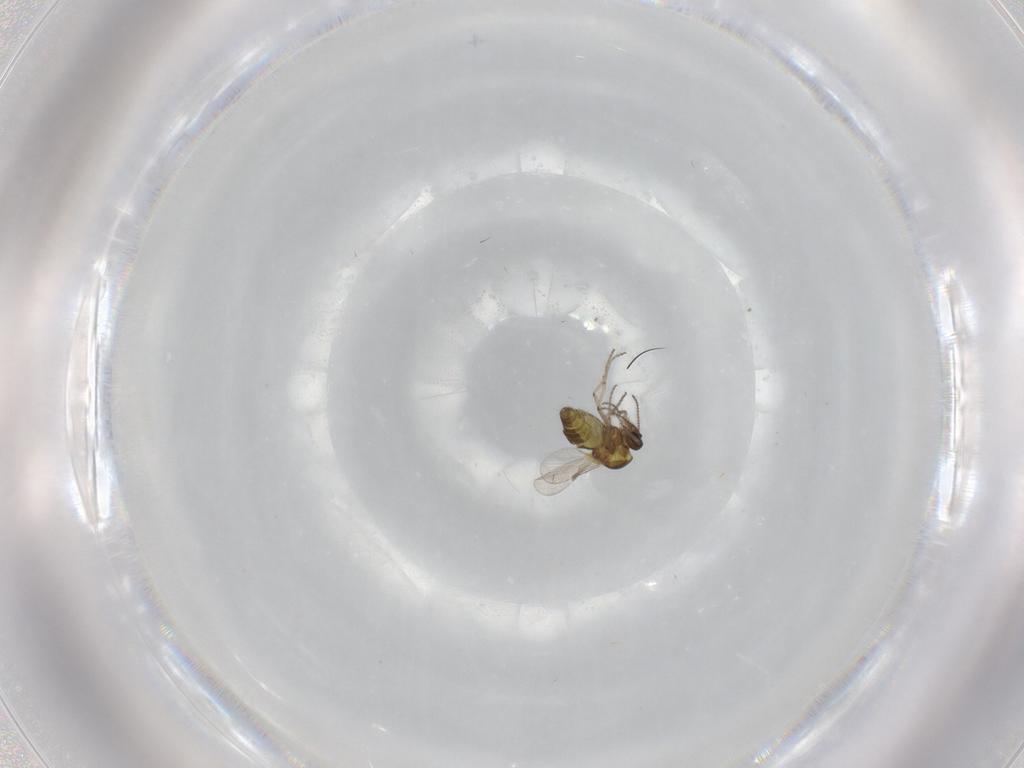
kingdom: Animalia
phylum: Arthropoda
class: Insecta
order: Diptera
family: Ceratopogonidae
